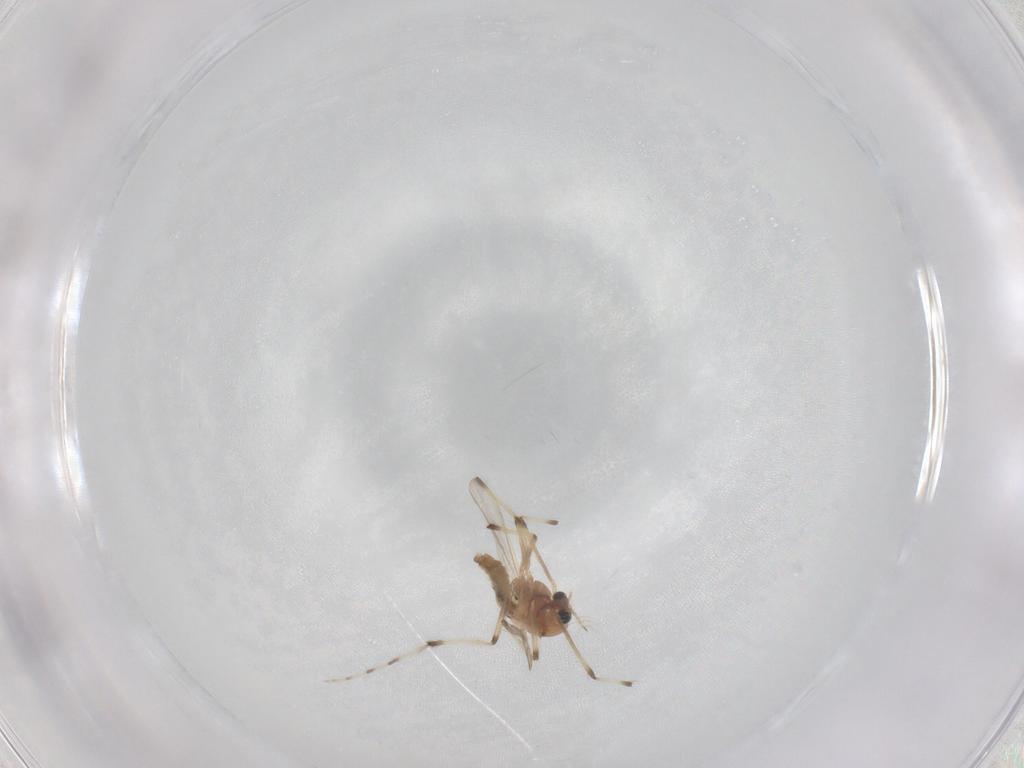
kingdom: Animalia
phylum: Arthropoda
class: Insecta
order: Diptera
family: Chironomidae
